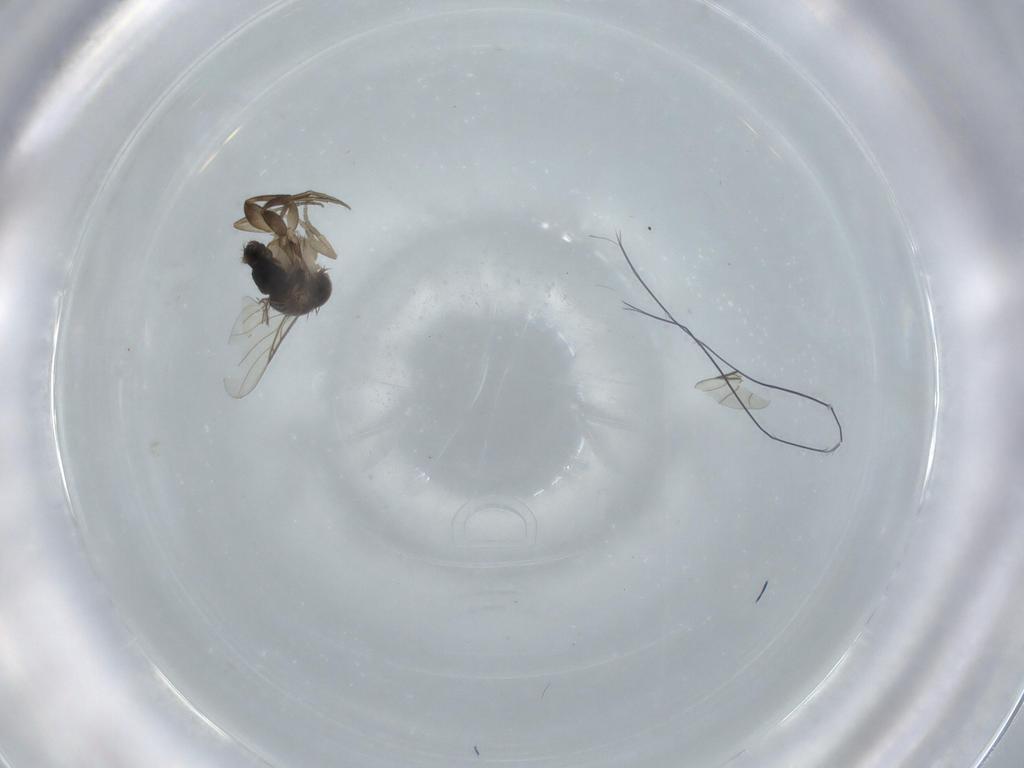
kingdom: Animalia
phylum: Arthropoda
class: Insecta
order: Diptera
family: Phoridae
